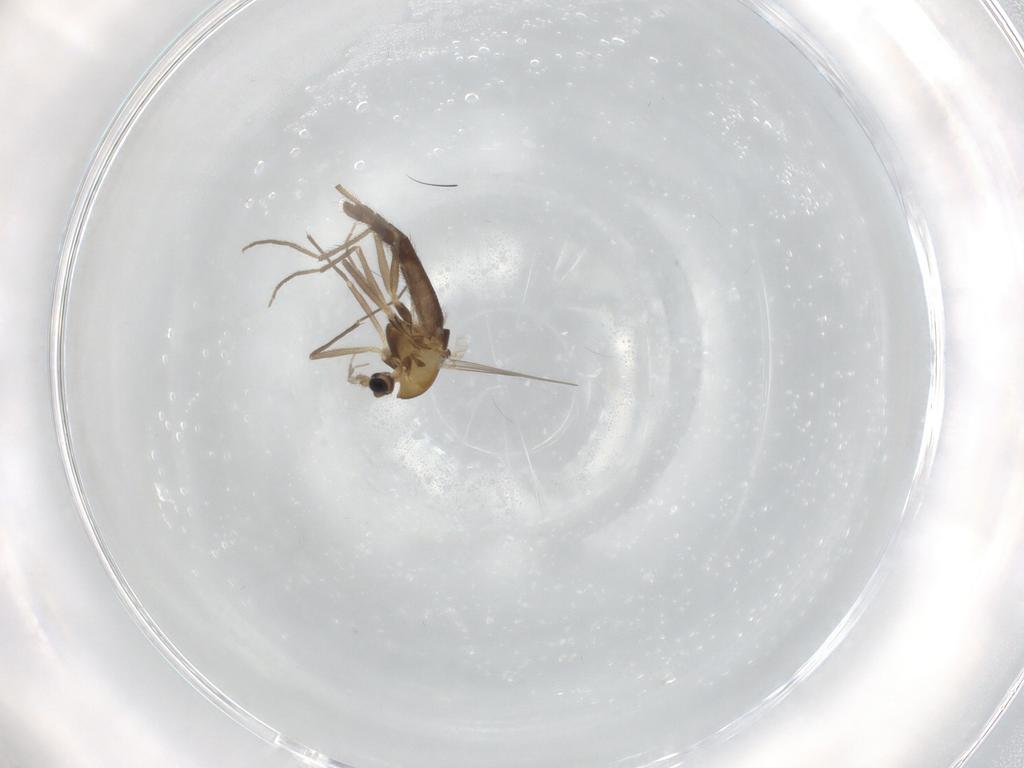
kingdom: Animalia
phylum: Arthropoda
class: Insecta
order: Diptera
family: Chironomidae
